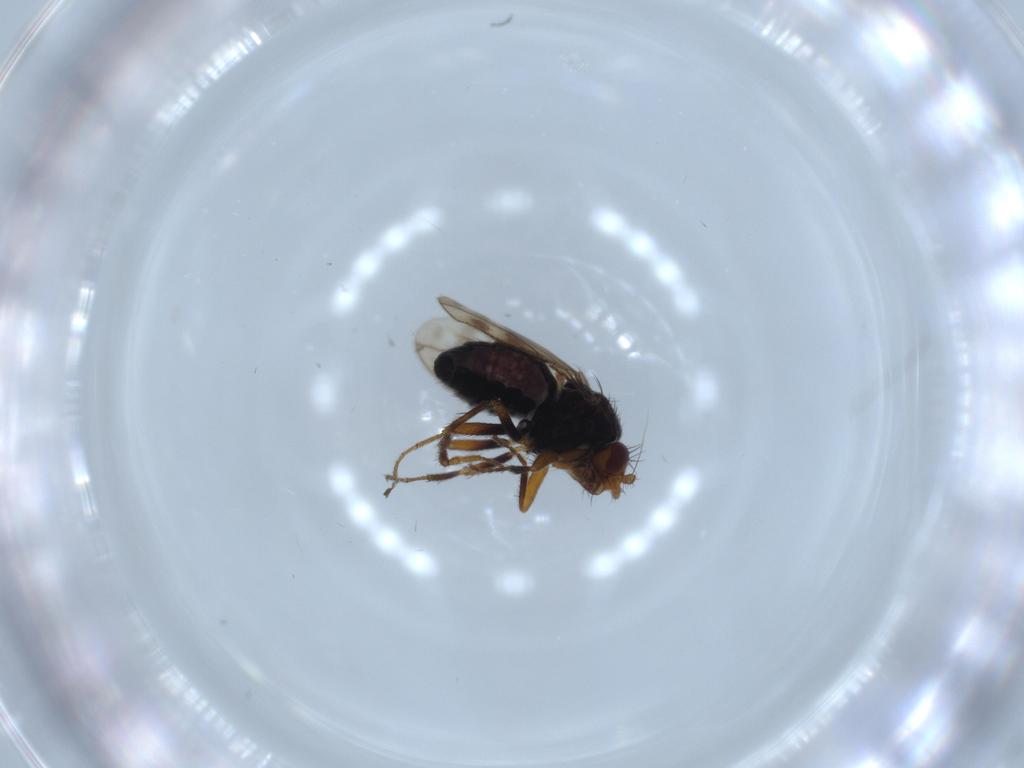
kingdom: Animalia
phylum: Arthropoda
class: Insecta
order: Diptera
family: Sphaeroceridae
